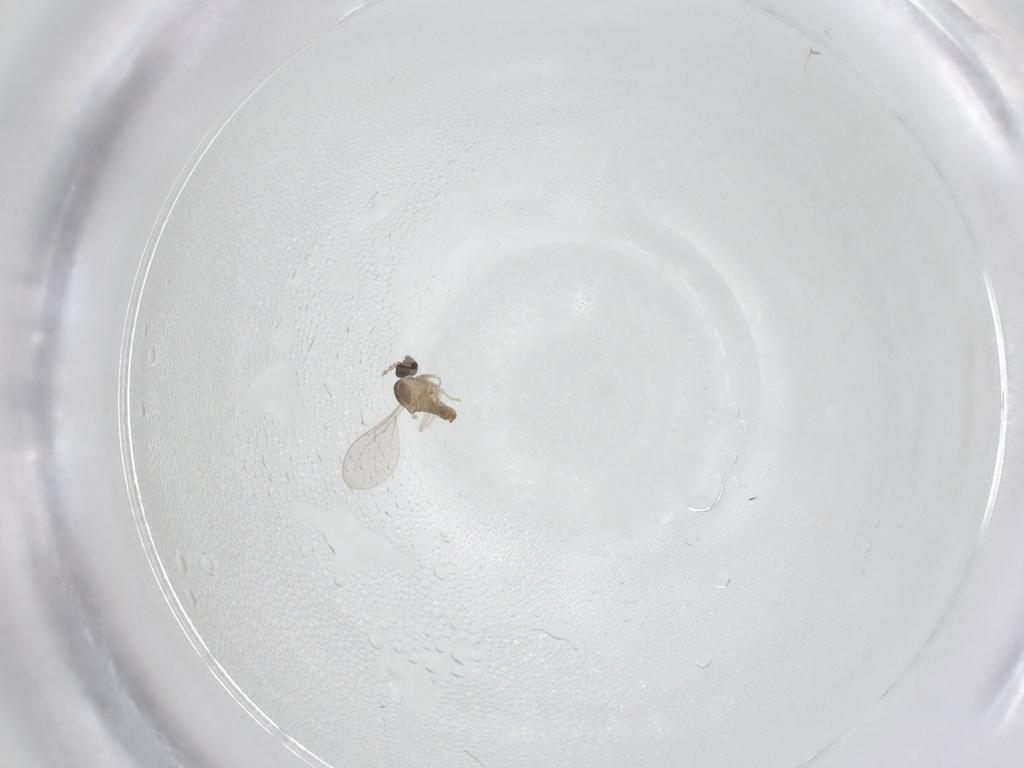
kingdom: Animalia
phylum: Arthropoda
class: Insecta
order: Diptera
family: Cecidomyiidae
